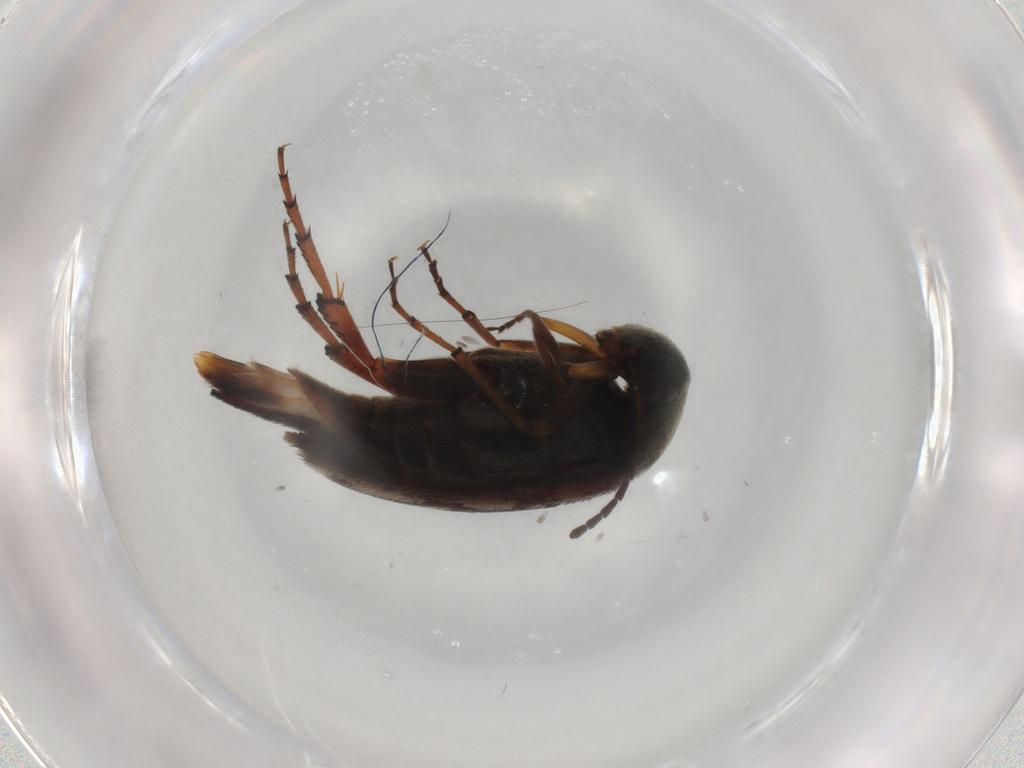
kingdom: Animalia
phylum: Arthropoda
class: Insecta
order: Coleoptera
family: Mordellidae
